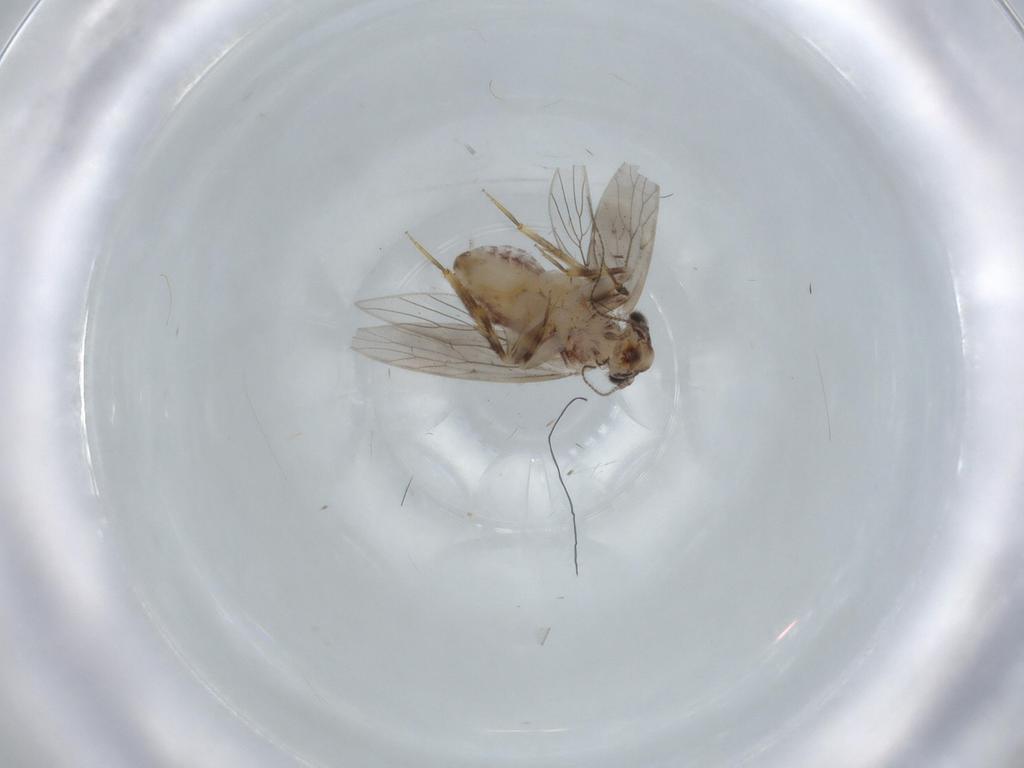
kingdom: Animalia
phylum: Arthropoda
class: Insecta
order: Psocodea
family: Lepidopsocidae
